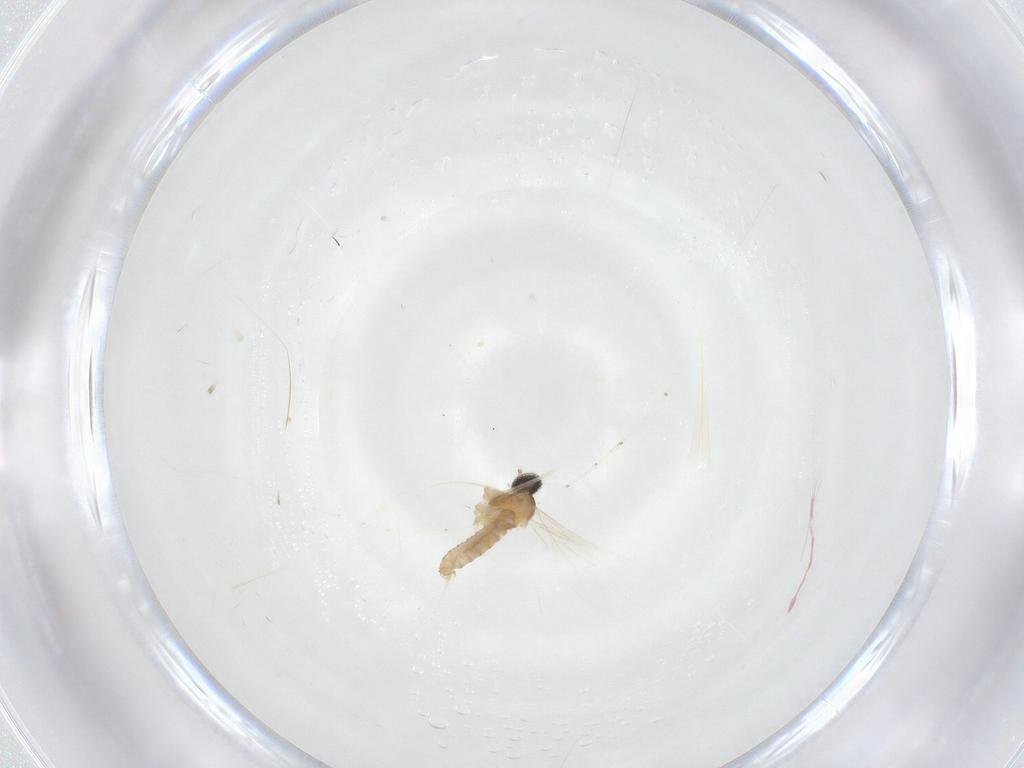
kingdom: Animalia
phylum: Arthropoda
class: Insecta
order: Diptera
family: Cecidomyiidae
